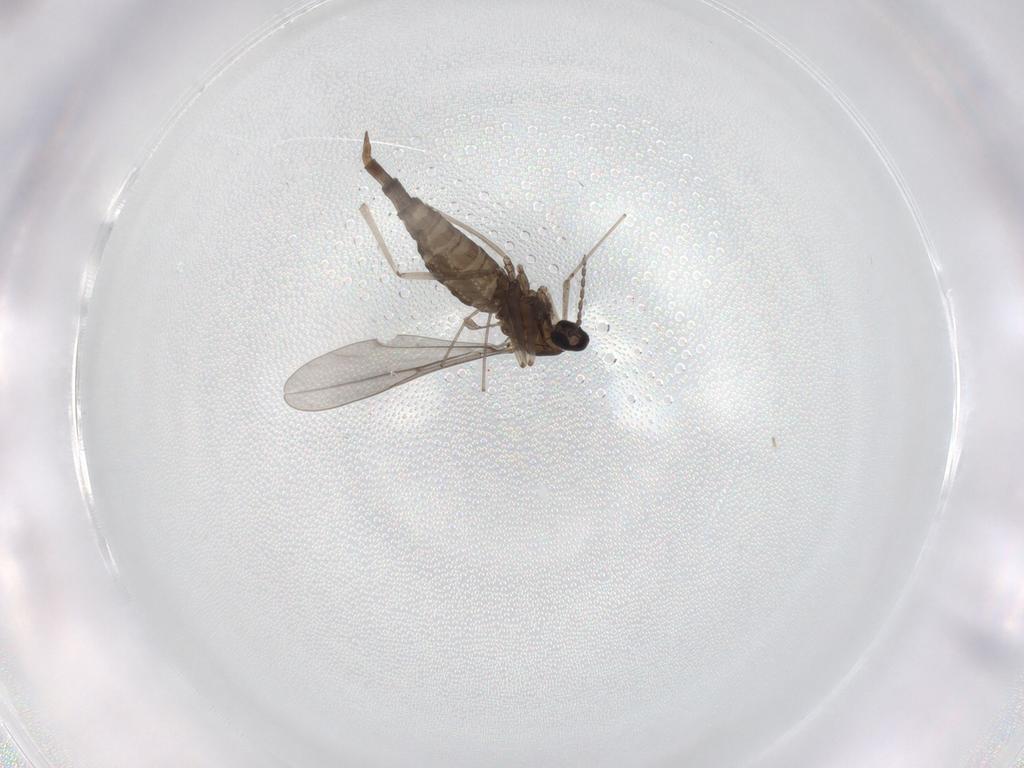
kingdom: Animalia
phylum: Arthropoda
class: Insecta
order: Diptera
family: Cecidomyiidae
